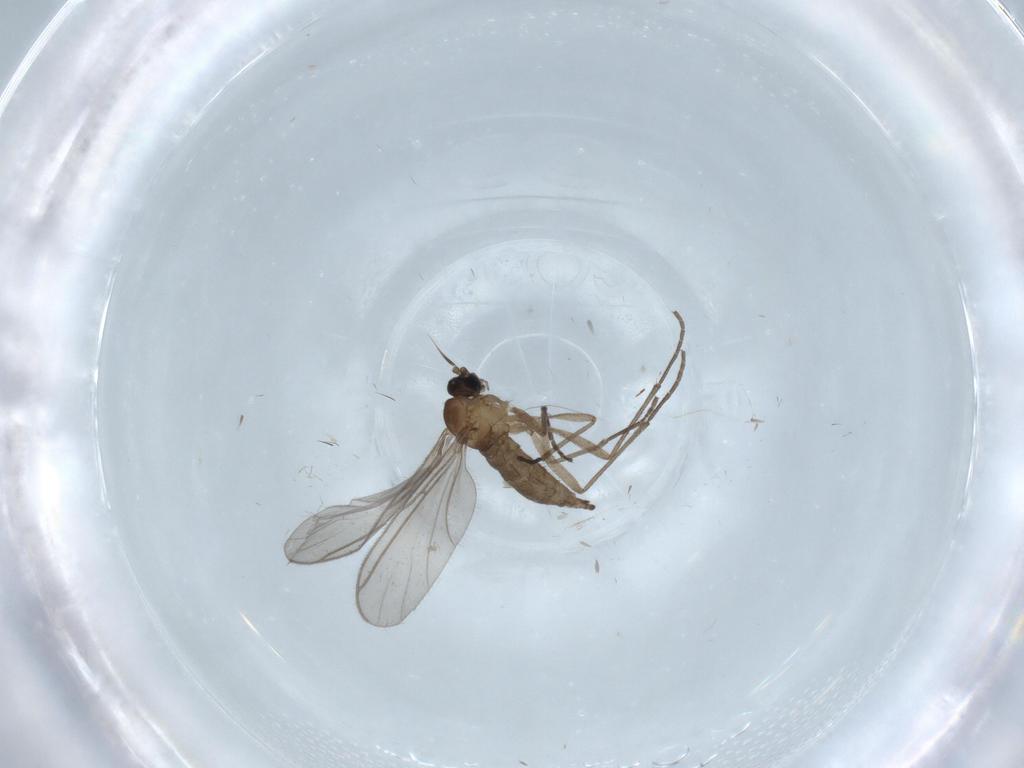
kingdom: Animalia
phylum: Arthropoda
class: Insecta
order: Diptera
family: Sciaridae
